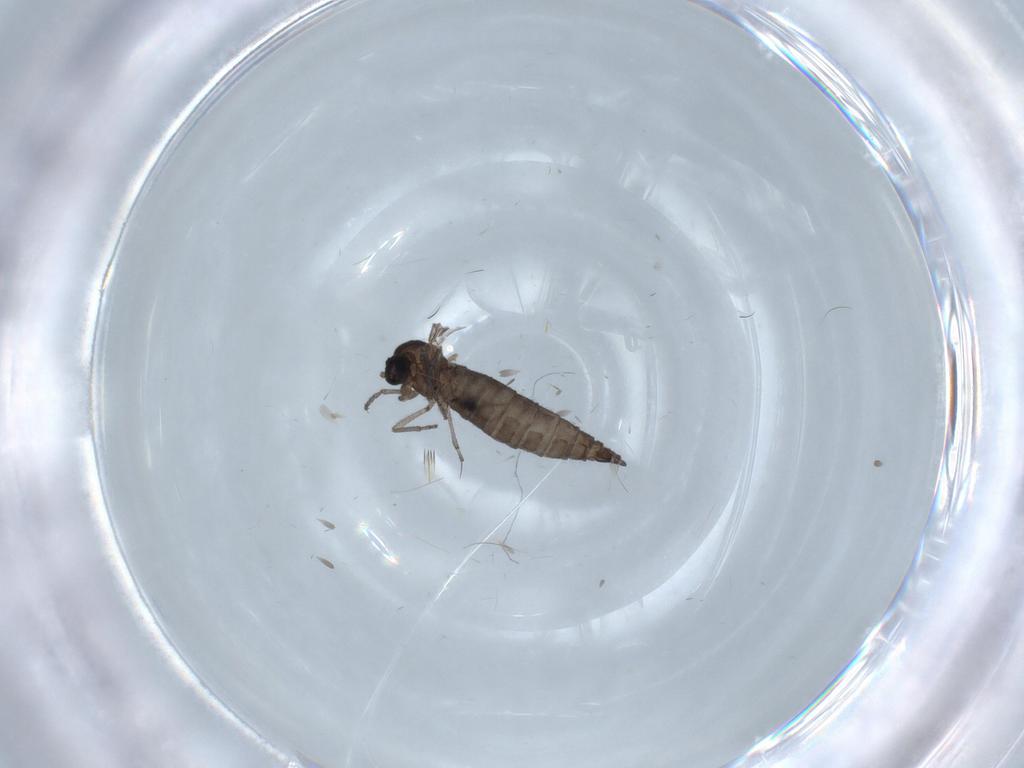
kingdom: Animalia
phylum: Arthropoda
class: Insecta
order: Diptera
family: Sciaridae
